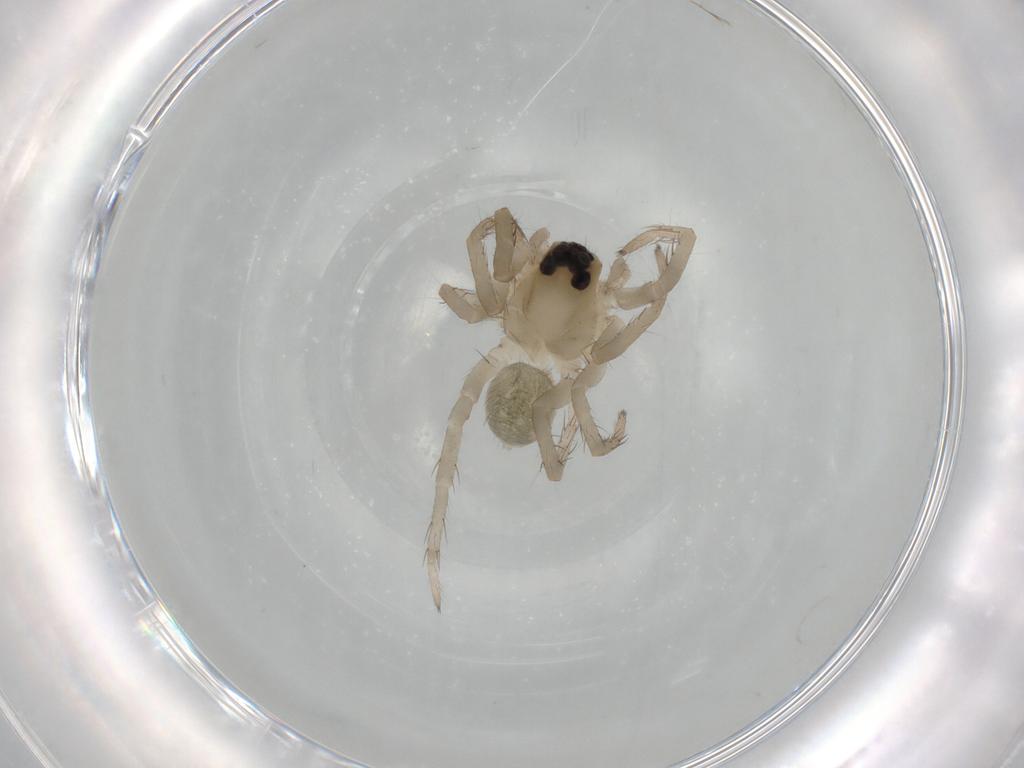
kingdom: Animalia
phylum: Arthropoda
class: Arachnida
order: Araneae
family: Lycosidae
